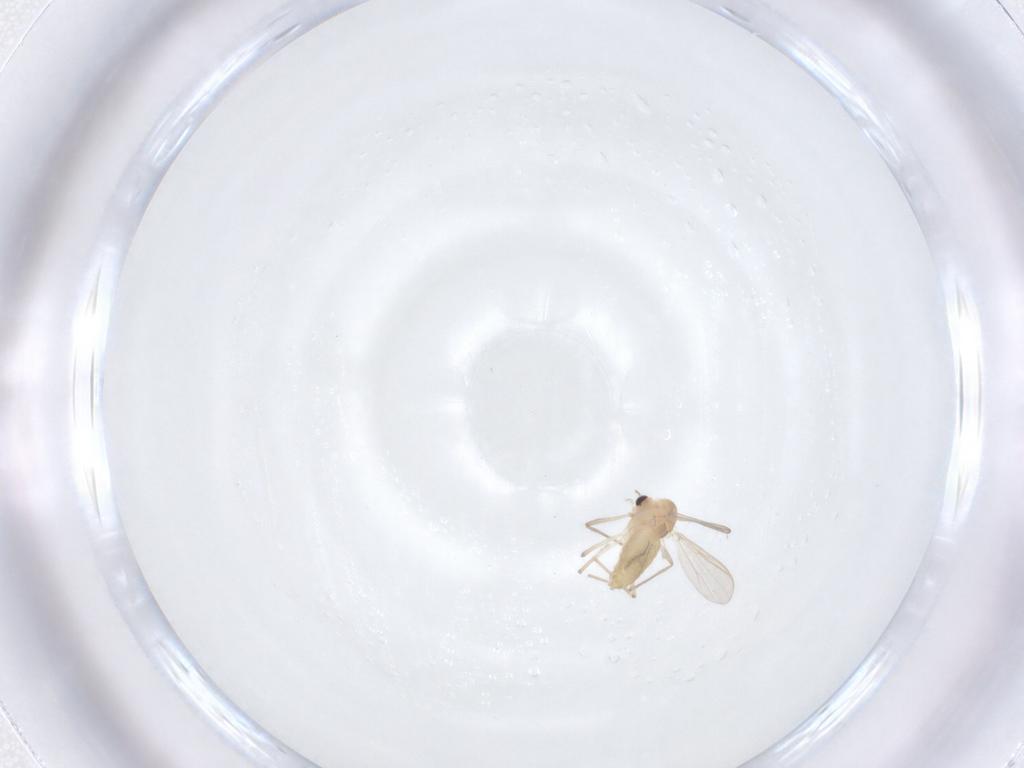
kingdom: Animalia
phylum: Arthropoda
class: Insecta
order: Diptera
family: Chironomidae
